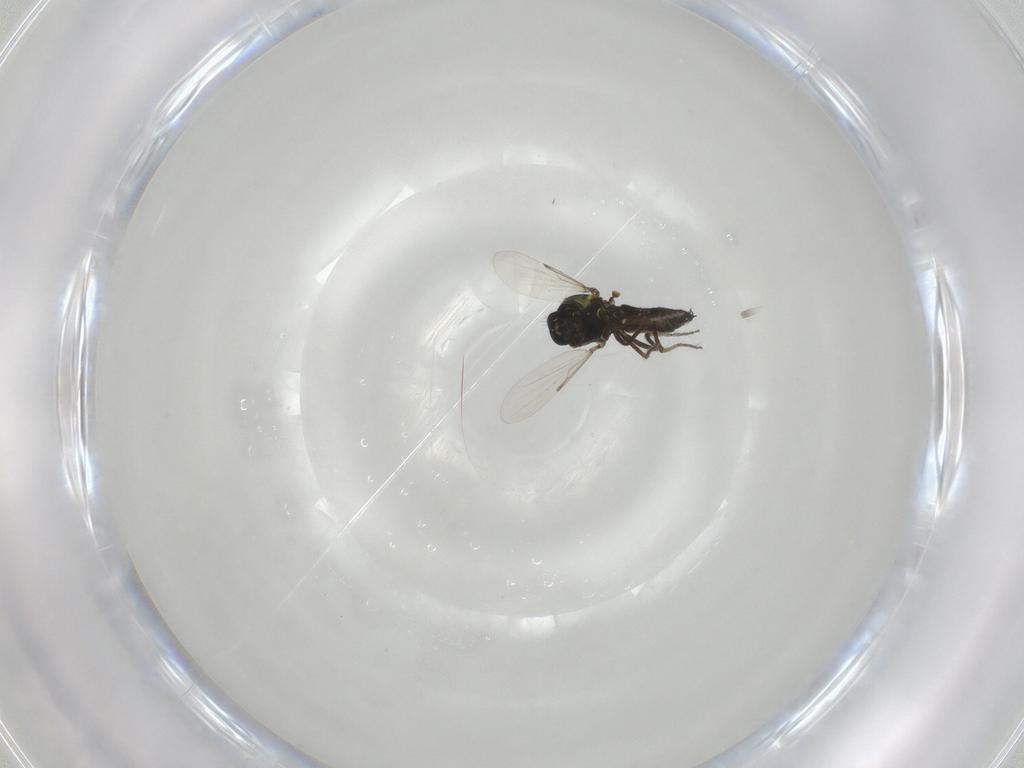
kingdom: Animalia
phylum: Arthropoda
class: Insecta
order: Diptera
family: Ceratopogonidae
